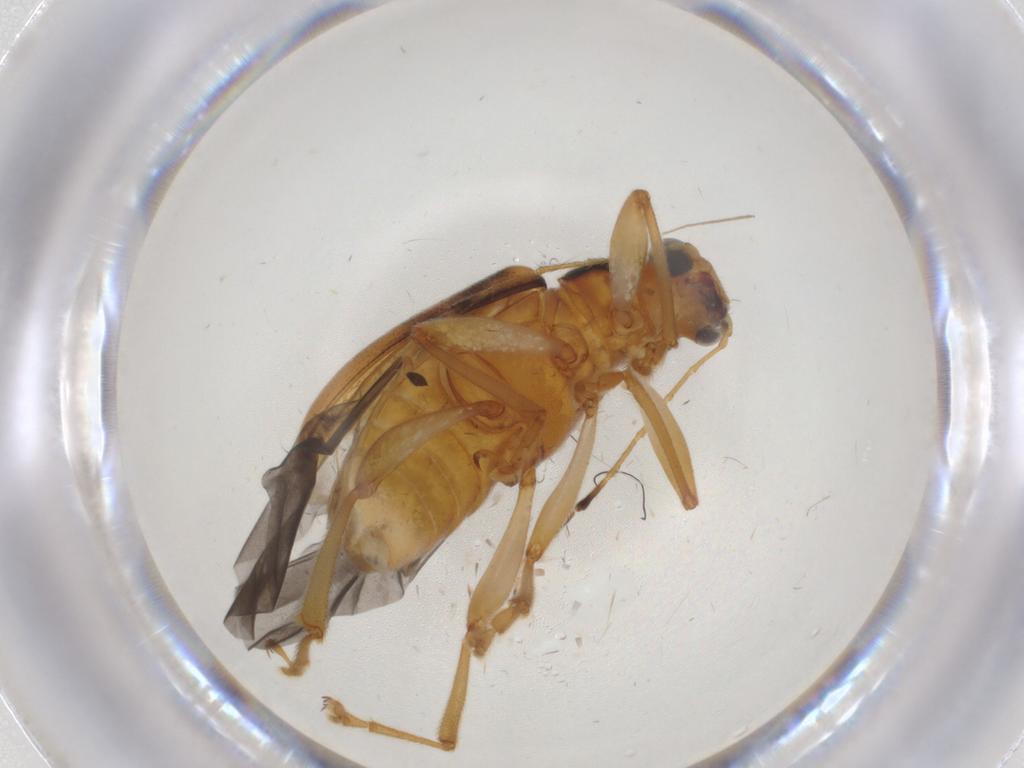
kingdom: Animalia
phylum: Arthropoda
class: Insecta
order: Coleoptera
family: Chrysomelidae
